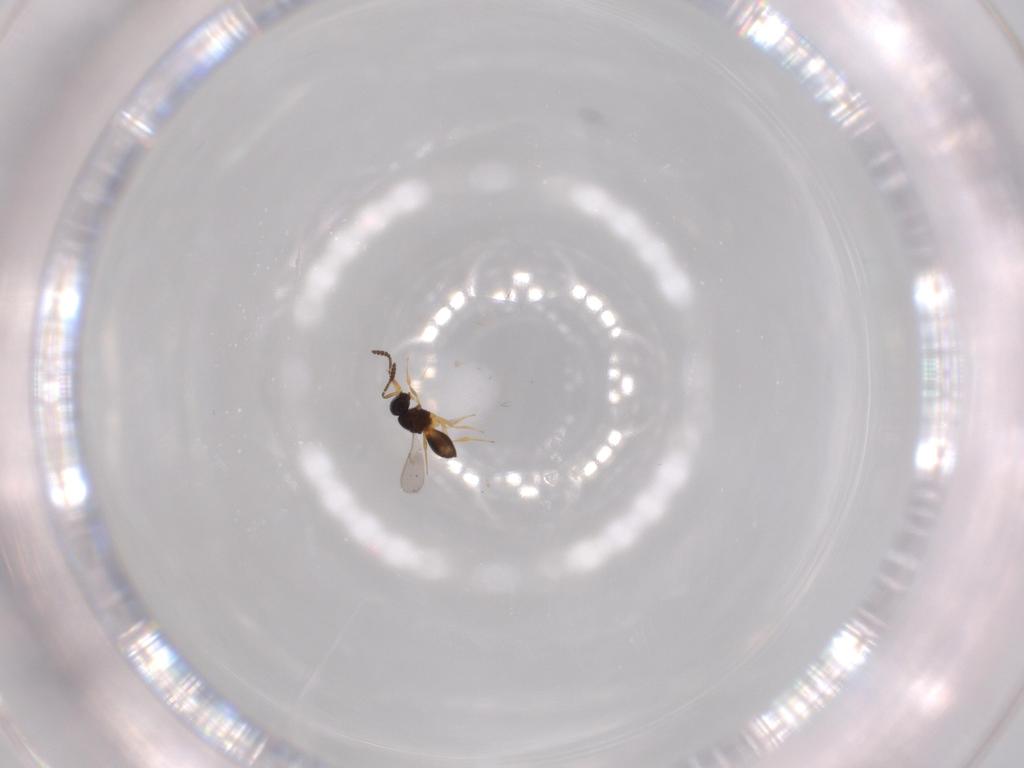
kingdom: Animalia
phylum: Arthropoda
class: Insecta
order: Hymenoptera
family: Scelionidae
